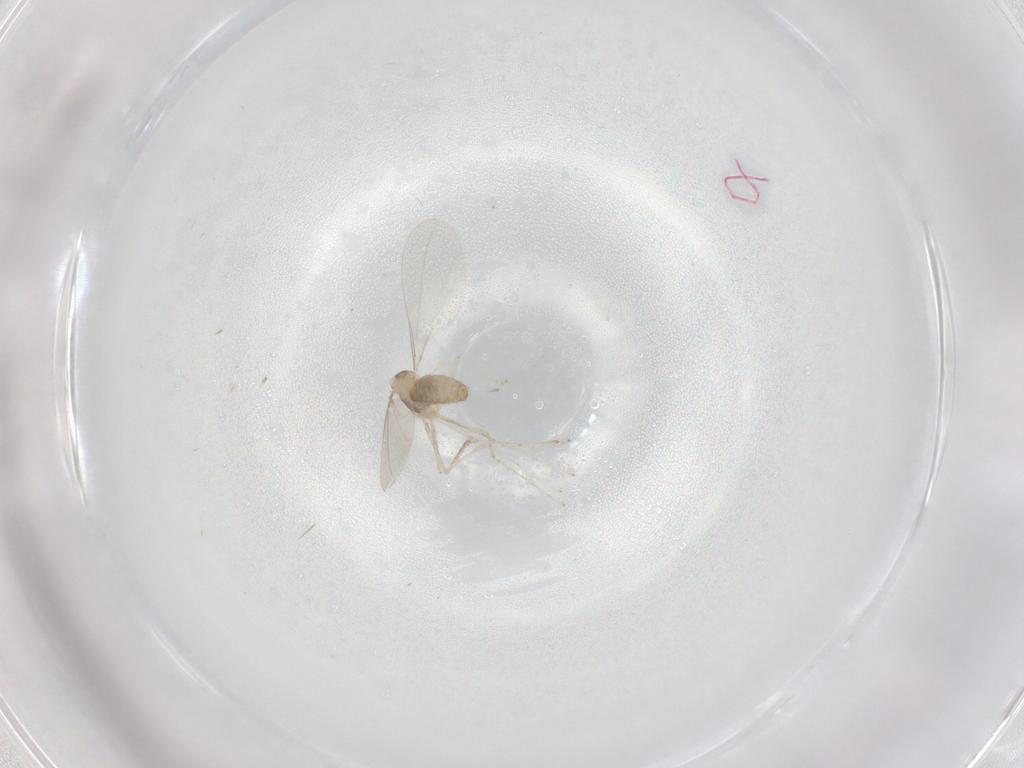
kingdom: Animalia
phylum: Arthropoda
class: Insecta
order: Diptera
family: Cecidomyiidae
